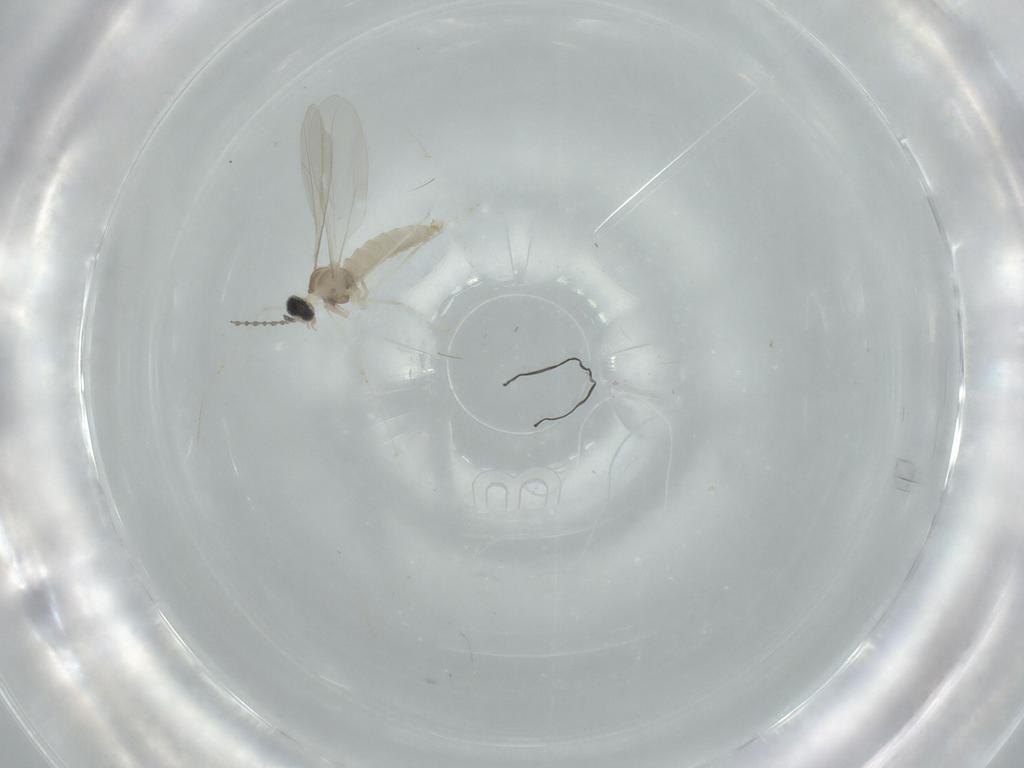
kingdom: Animalia
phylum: Arthropoda
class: Insecta
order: Diptera
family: Cecidomyiidae
